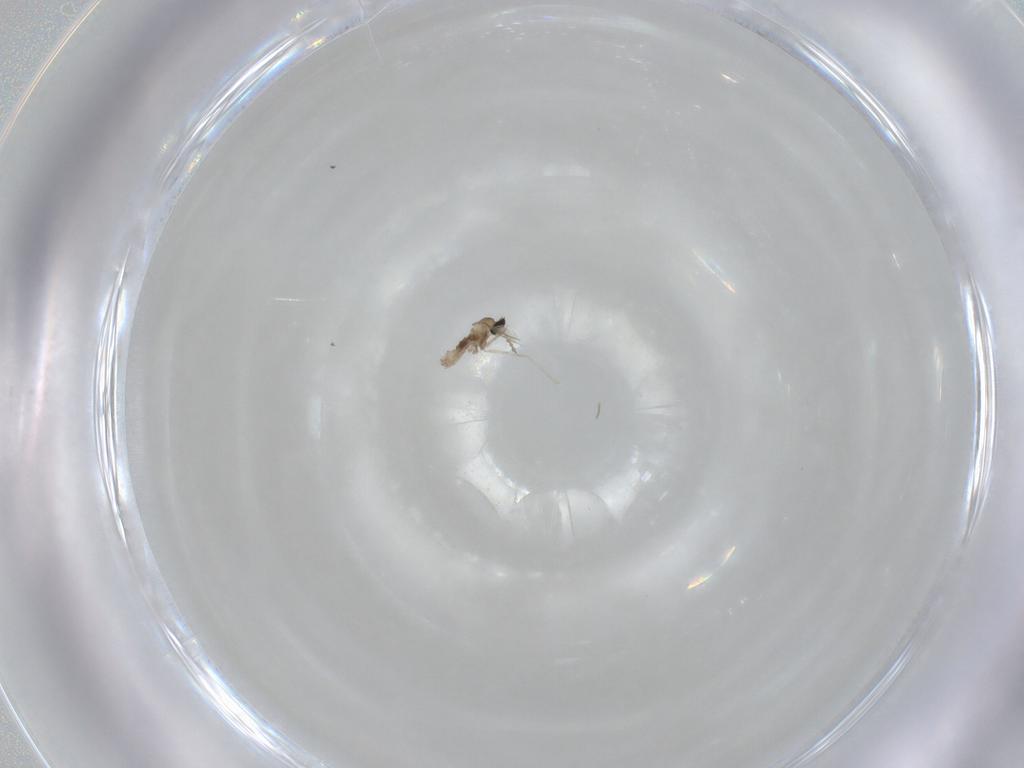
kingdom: Animalia
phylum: Arthropoda
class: Insecta
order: Diptera
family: Cecidomyiidae
